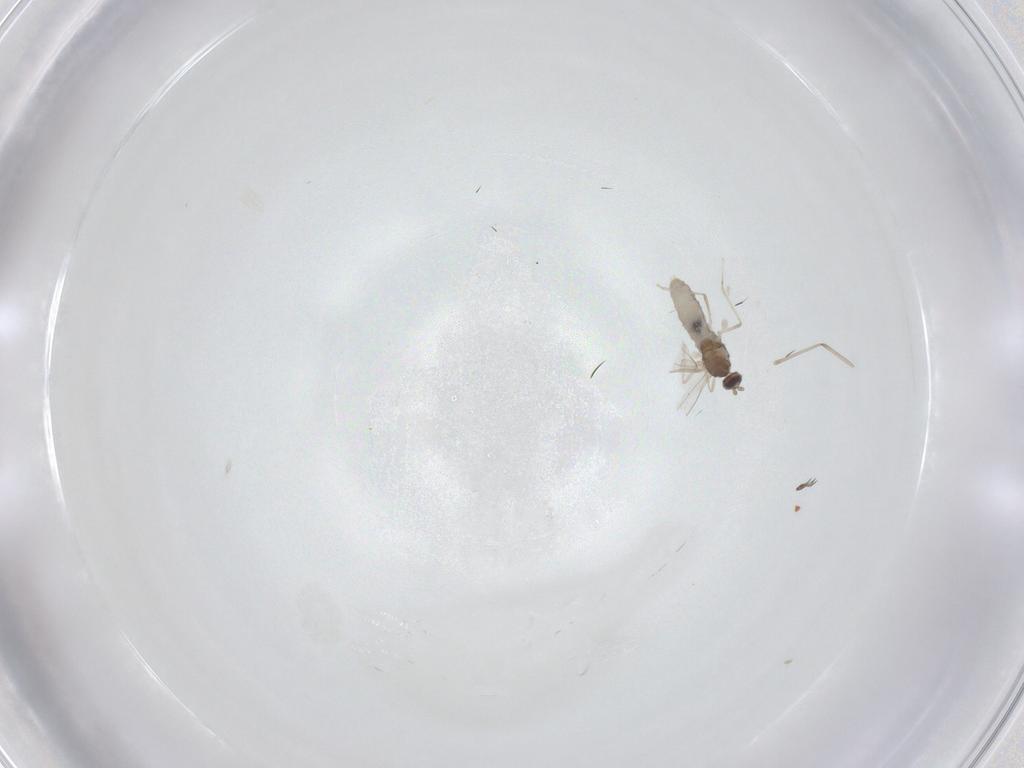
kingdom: Animalia
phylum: Arthropoda
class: Insecta
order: Diptera
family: Cecidomyiidae
